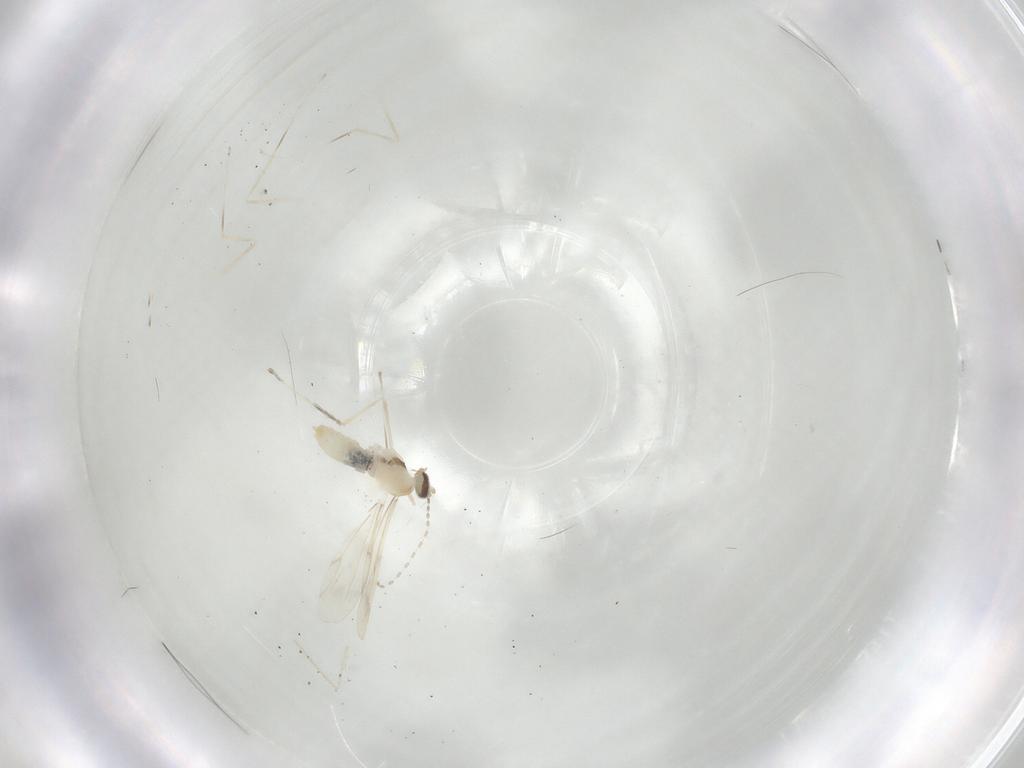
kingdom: Animalia
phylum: Arthropoda
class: Insecta
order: Diptera
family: Cecidomyiidae
